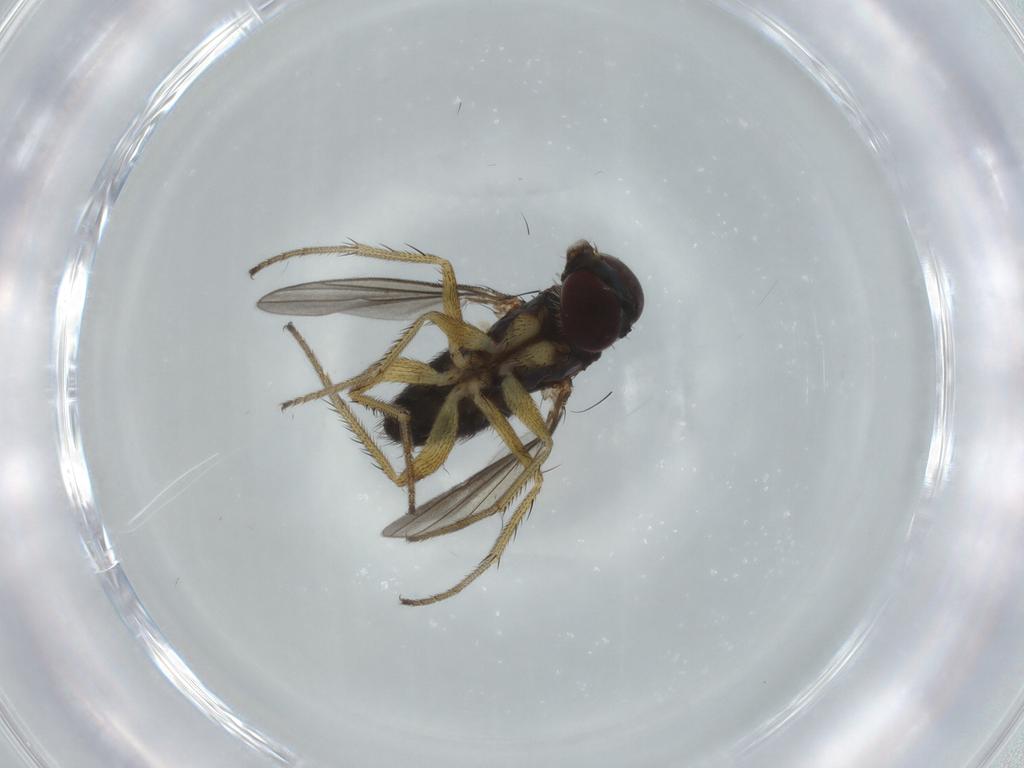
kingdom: Animalia
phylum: Arthropoda
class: Insecta
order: Diptera
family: Dolichopodidae
